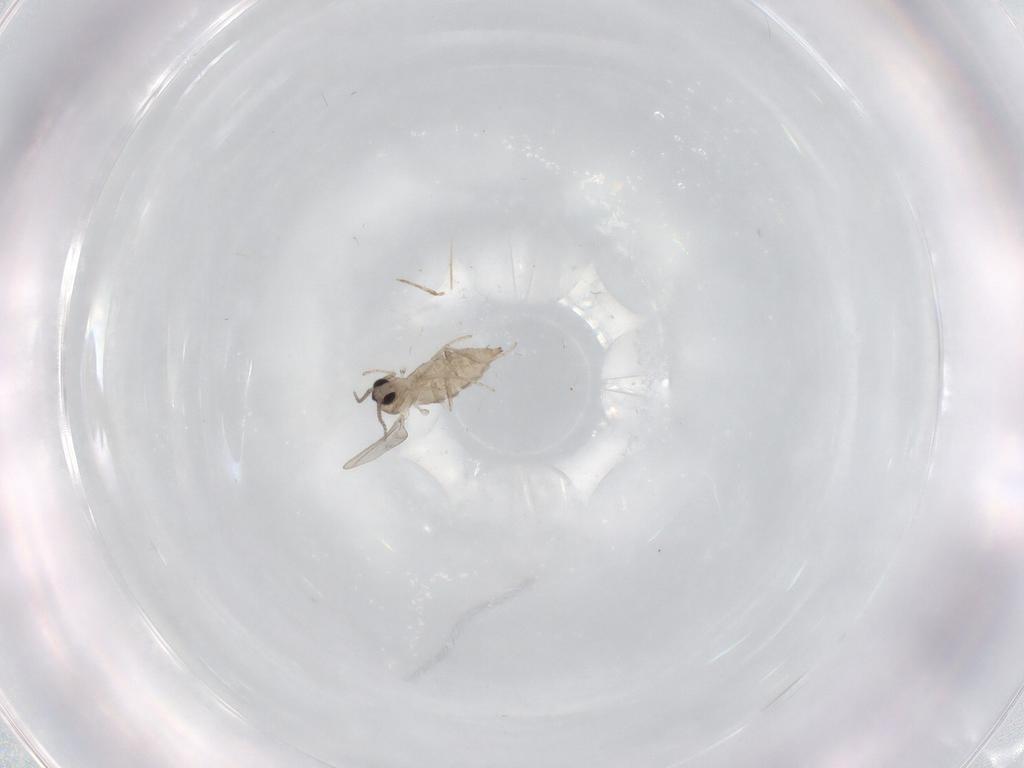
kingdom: Animalia
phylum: Arthropoda
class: Insecta
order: Diptera
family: Cecidomyiidae
